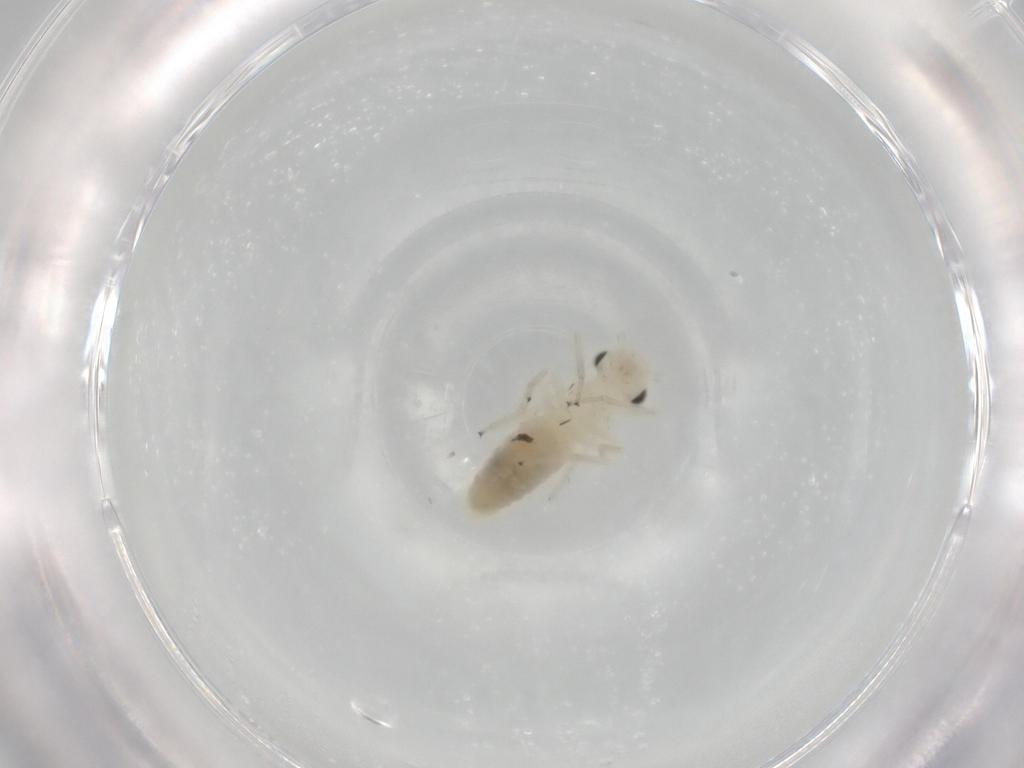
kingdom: Animalia
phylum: Arthropoda
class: Insecta
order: Psocodea
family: Caeciliusidae
